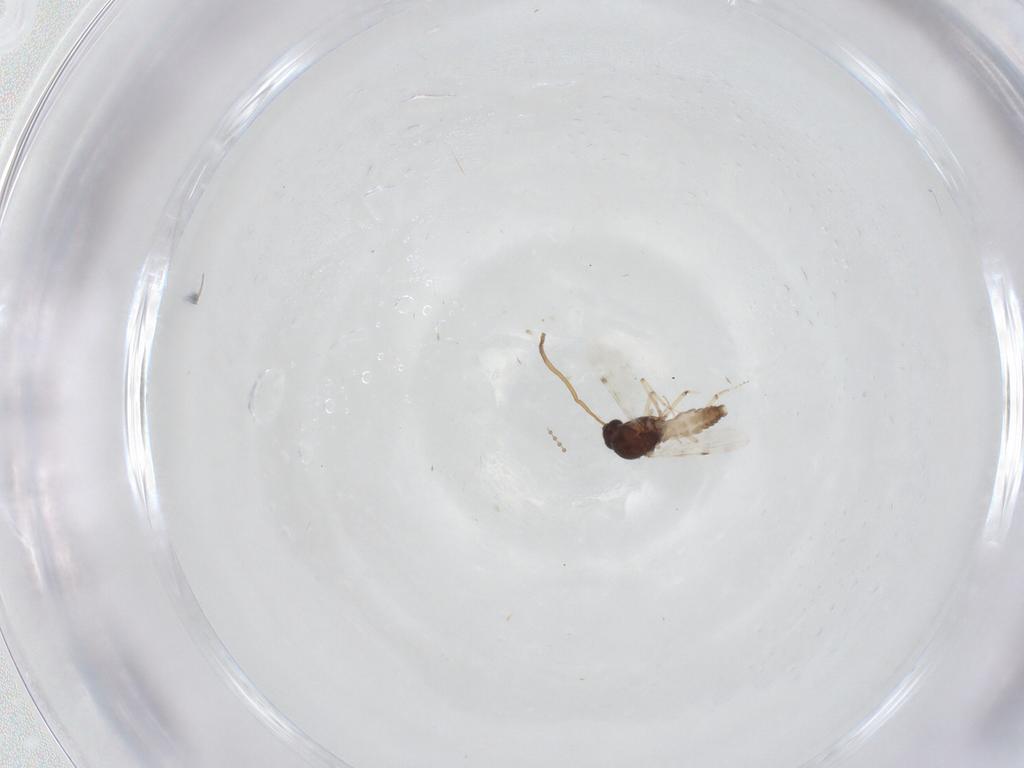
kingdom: Animalia
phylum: Arthropoda
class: Insecta
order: Diptera
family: Cecidomyiidae
